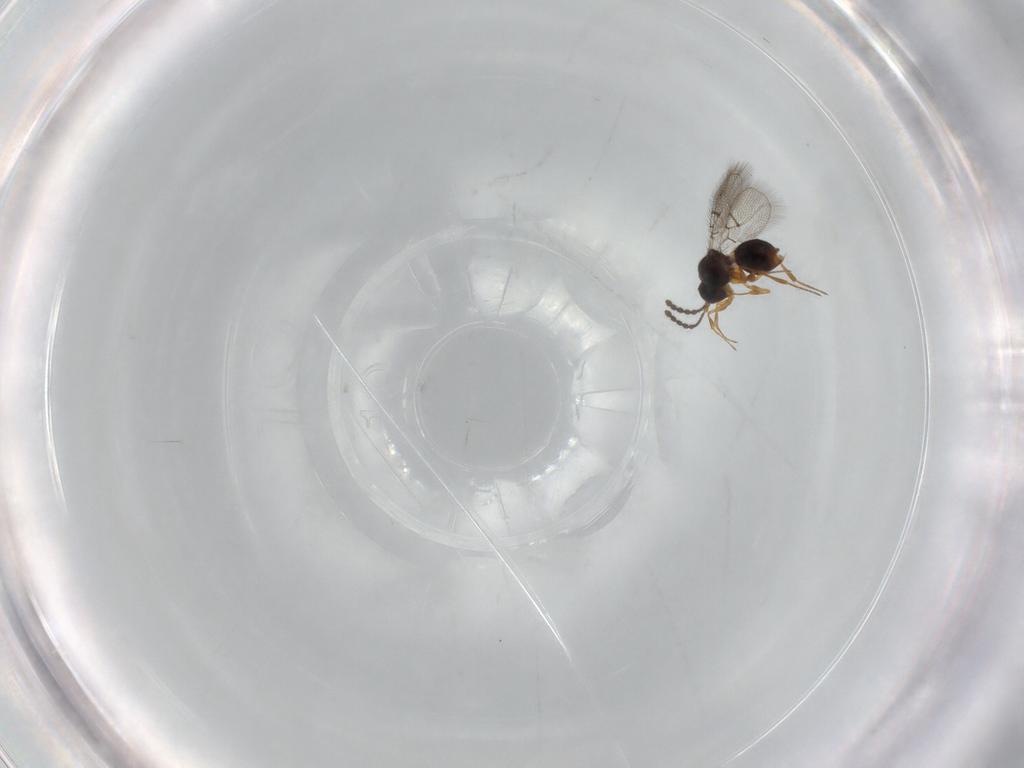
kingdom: Animalia
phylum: Arthropoda
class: Insecta
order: Hymenoptera
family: Figitidae
